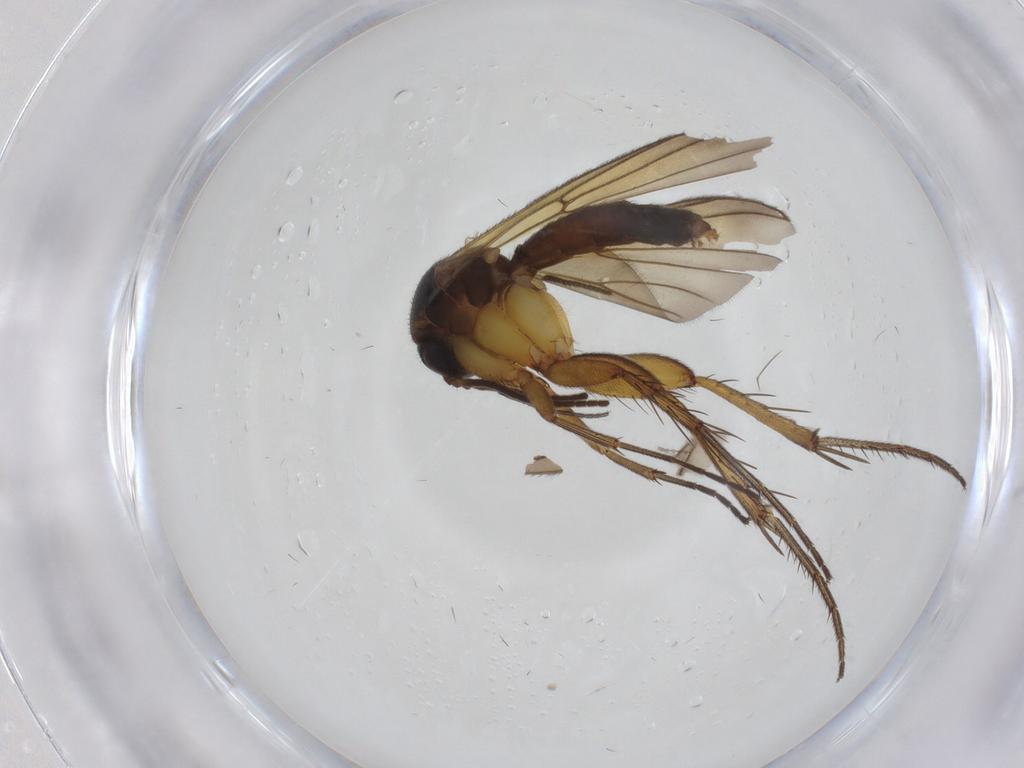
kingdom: Animalia
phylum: Arthropoda
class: Insecta
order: Diptera
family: Mycetophilidae
